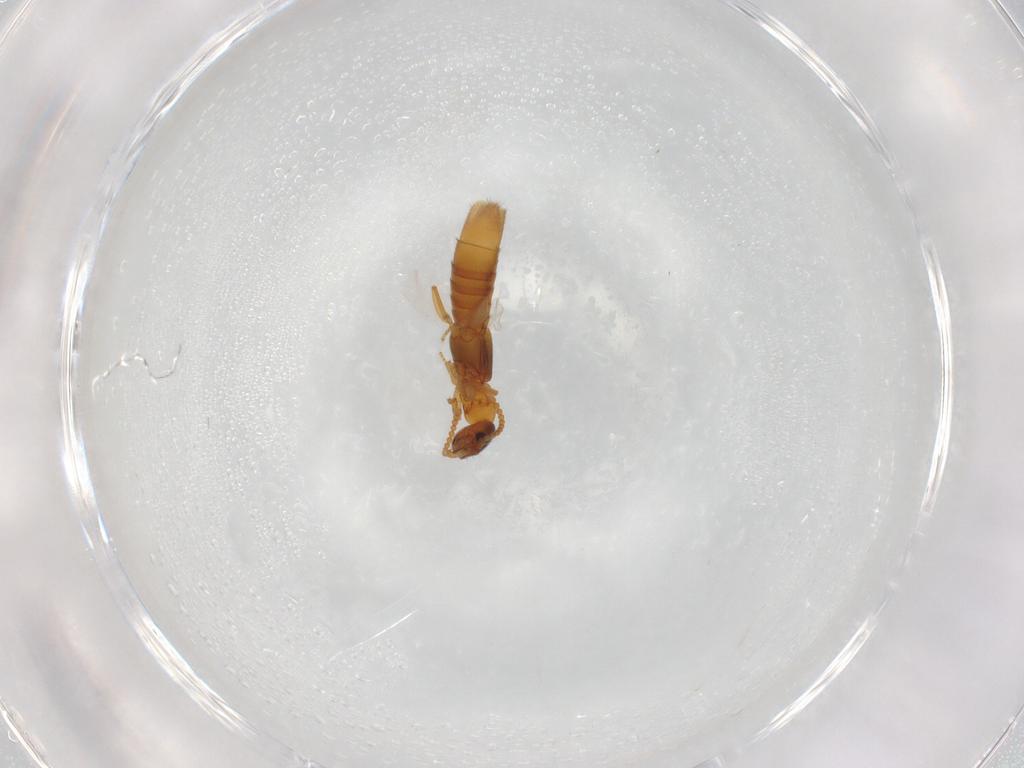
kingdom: Animalia
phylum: Arthropoda
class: Insecta
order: Coleoptera
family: Staphylinidae
